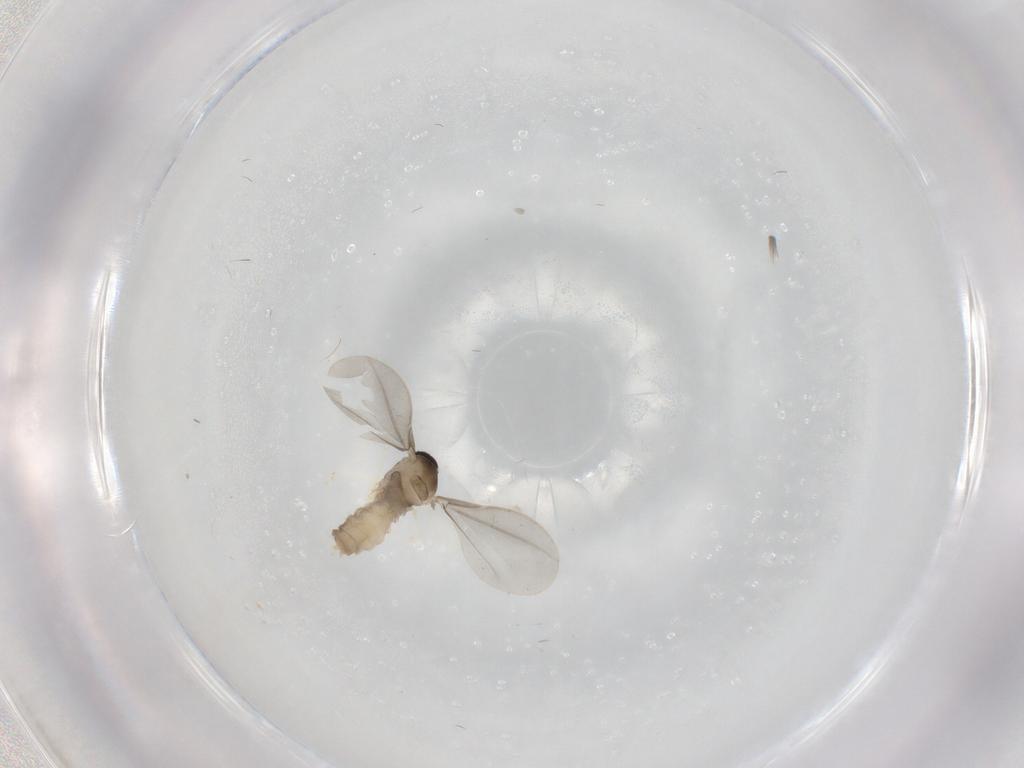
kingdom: Animalia
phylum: Arthropoda
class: Insecta
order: Diptera
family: Cecidomyiidae
